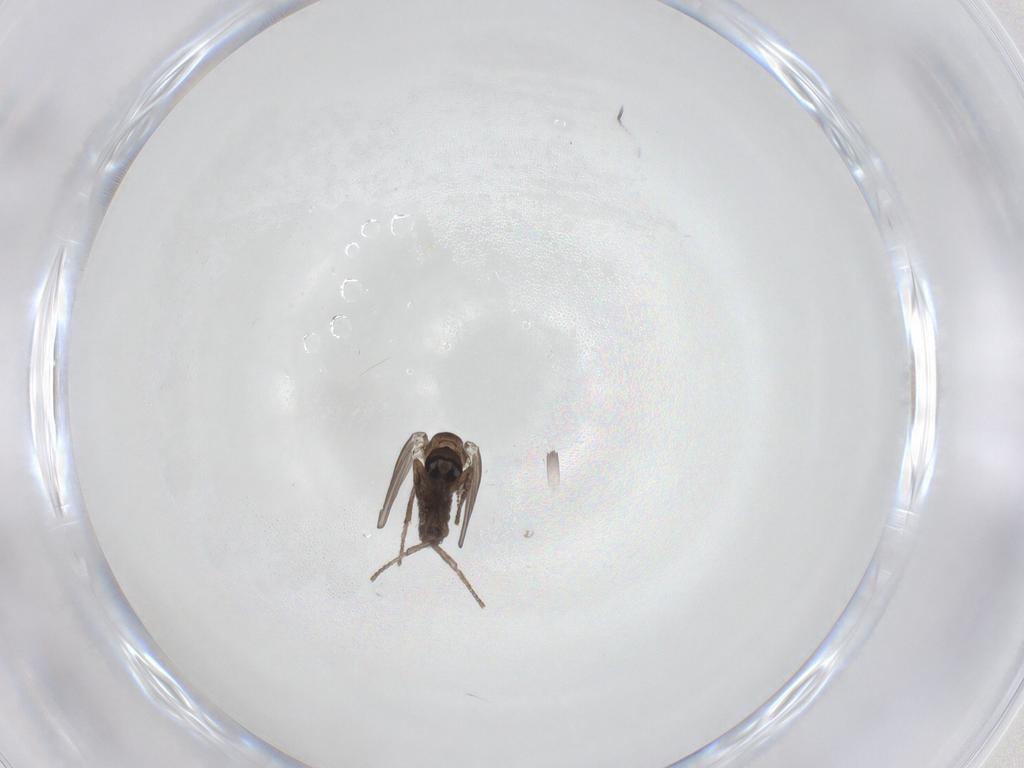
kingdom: Animalia
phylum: Arthropoda
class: Insecta
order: Diptera
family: Psychodidae
